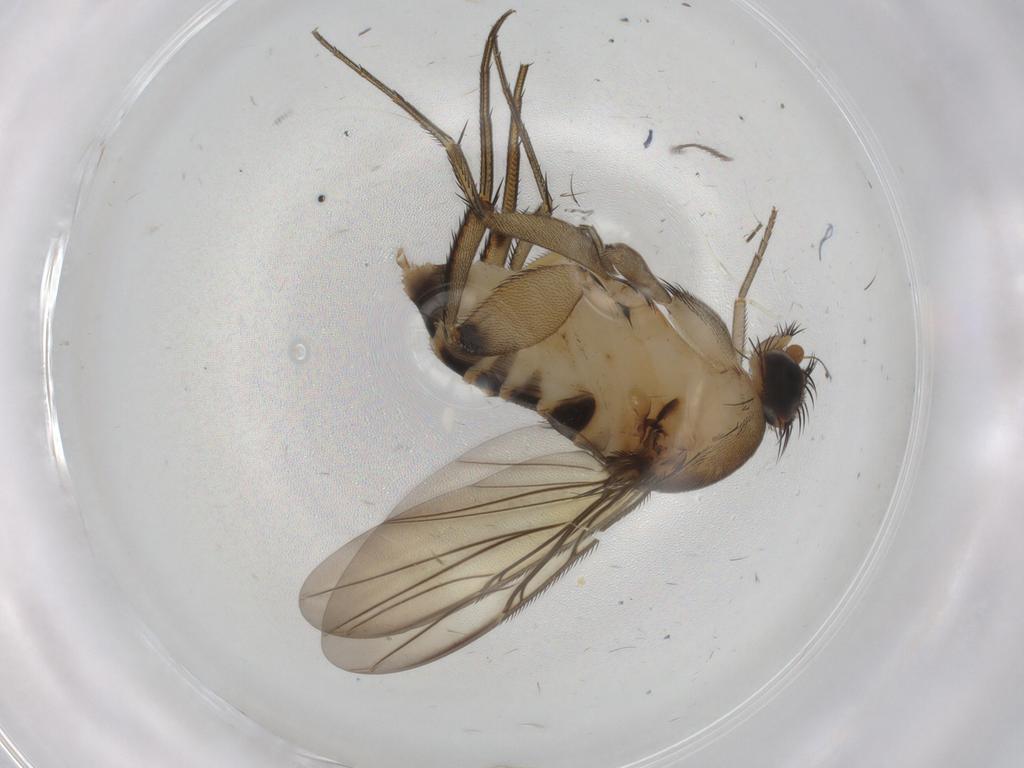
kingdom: Animalia
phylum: Arthropoda
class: Insecta
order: Diptera
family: Phoridae
